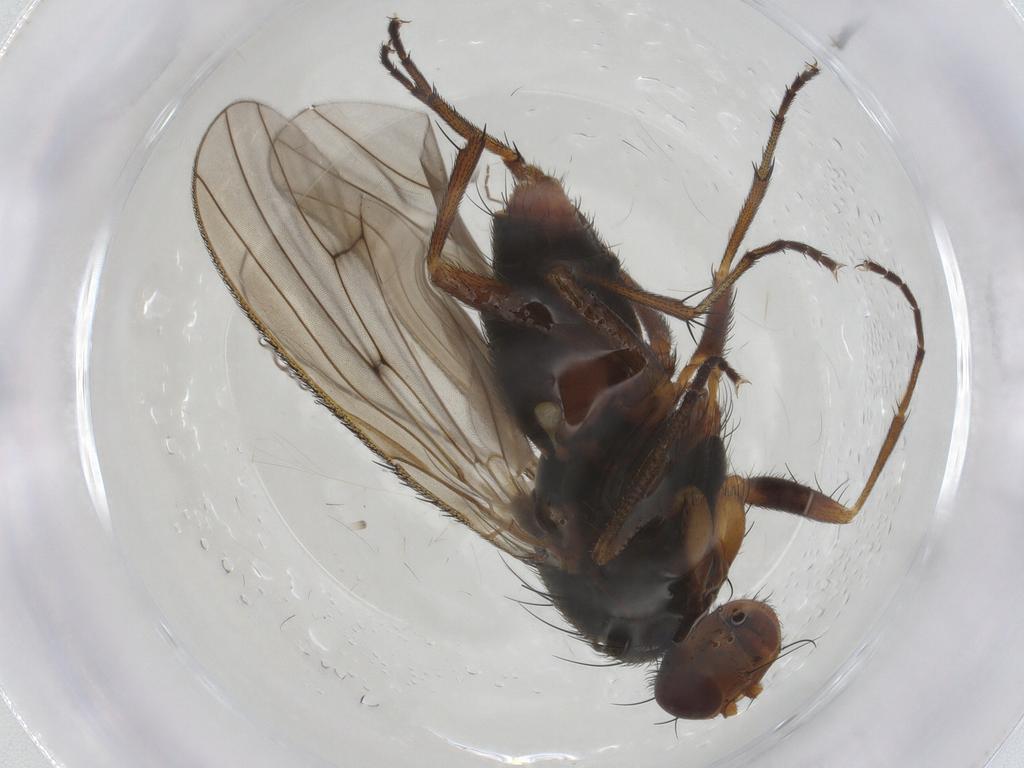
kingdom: Animalia
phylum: Arthropoda
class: Insecta
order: Diptera
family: Heleomyzidae
